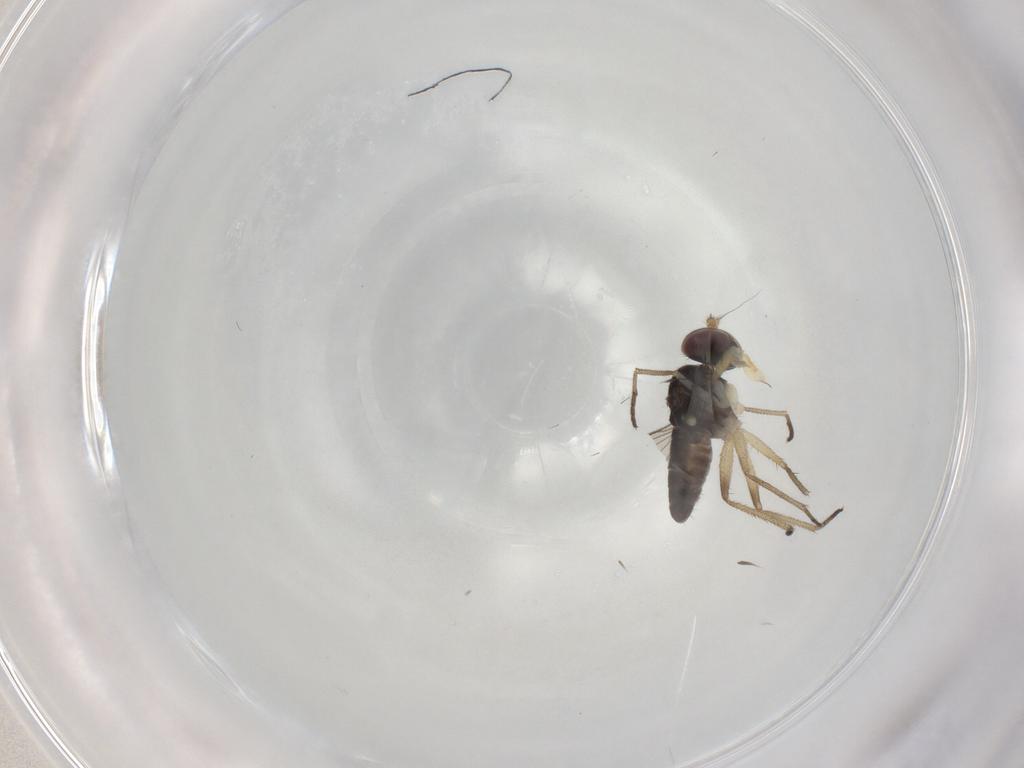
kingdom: Animalia
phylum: Arthropoda
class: Insecta
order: Diptera
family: Dolichopodidae
